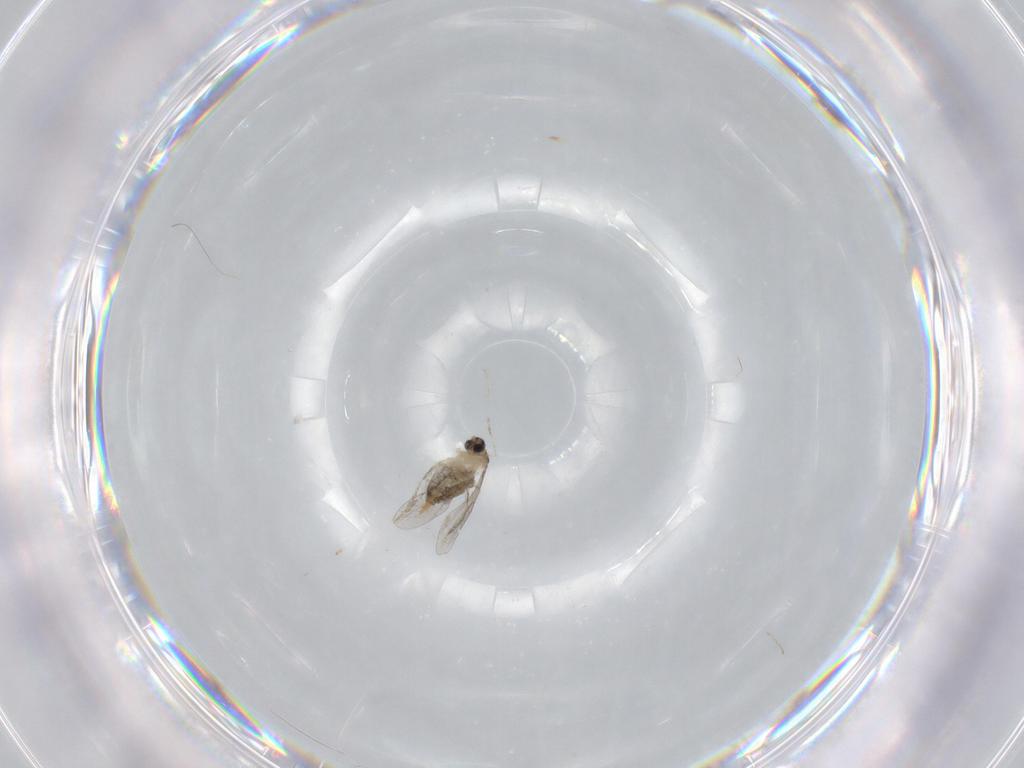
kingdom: Animalia
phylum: Arthropoda
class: Insecta
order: Diptera
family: Cecidomyiidae
